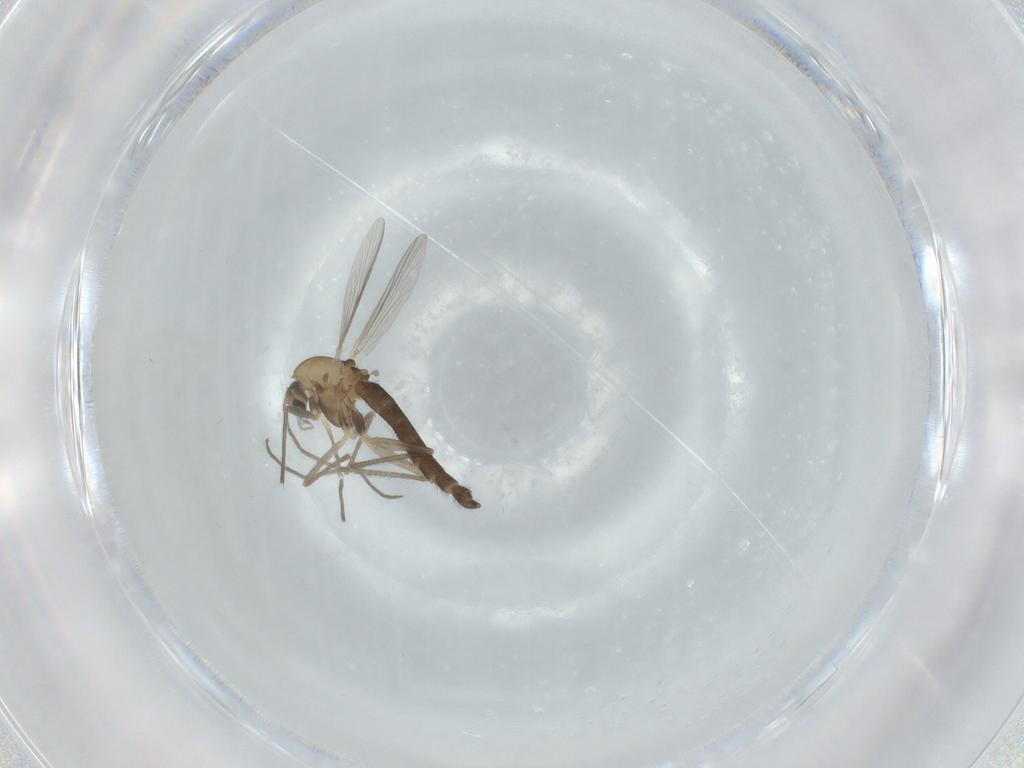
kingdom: Animalia
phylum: Arthropoda
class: Insecta
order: Diptera
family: Chironomidae
